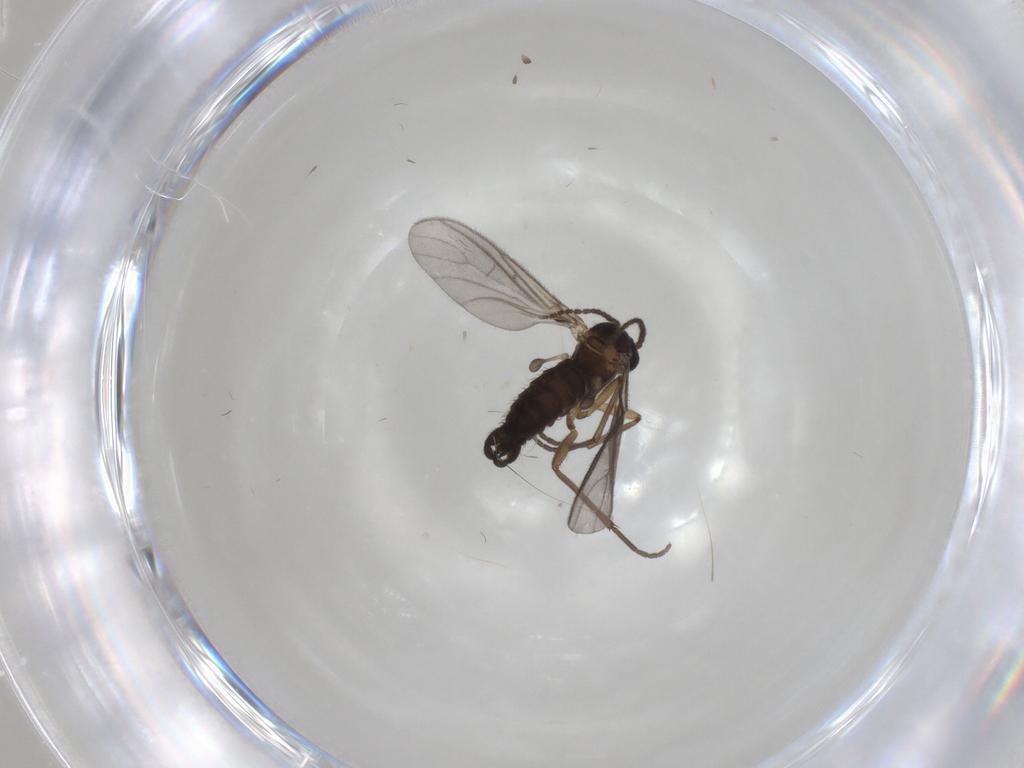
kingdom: Animalia
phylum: Arthropoda
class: Insecta
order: Diptera
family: Sciaridae
